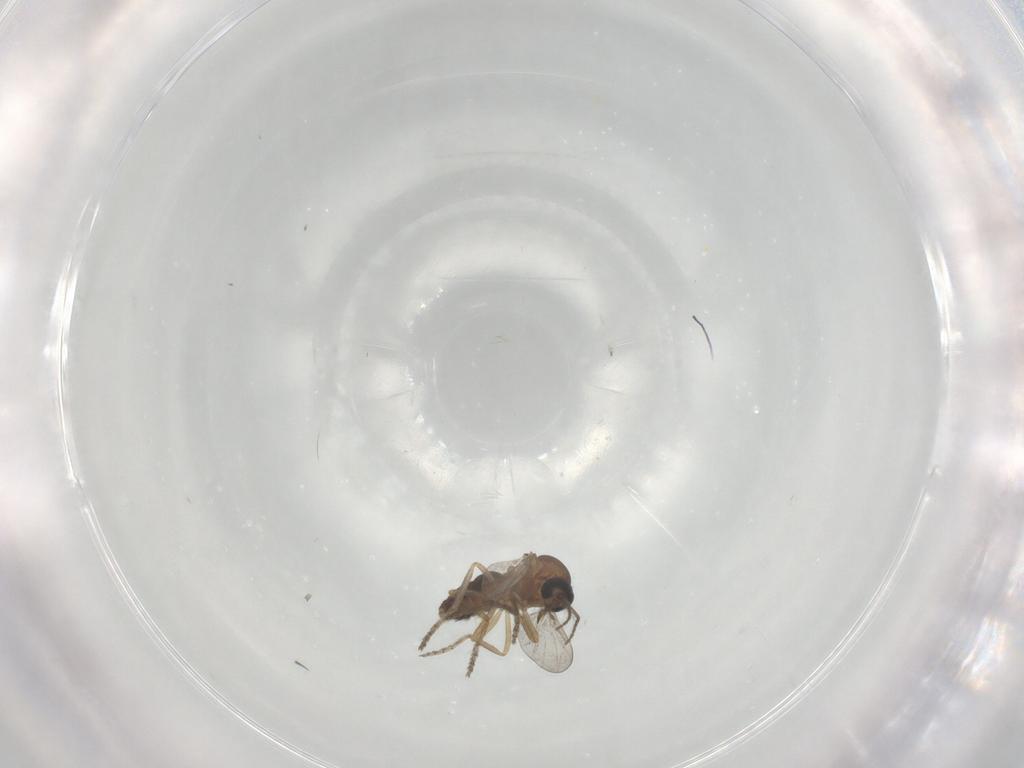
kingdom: Animalia
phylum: Arthropoda
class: Insecta
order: Diptera
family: Ceratopogonidae
